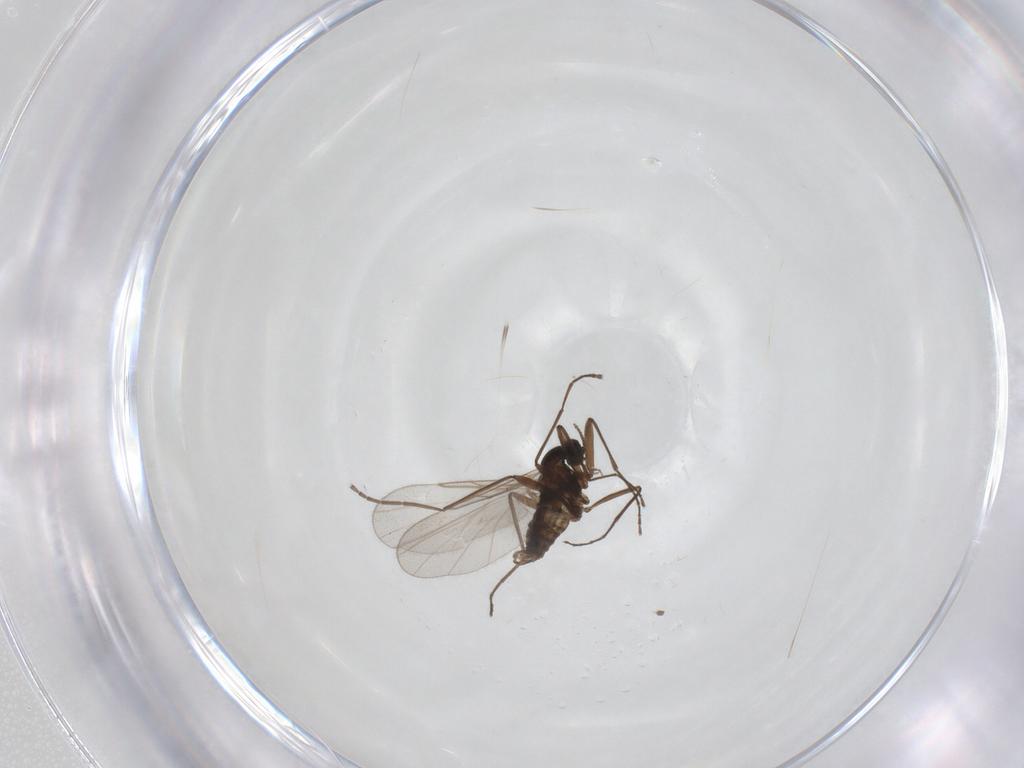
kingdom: Animalia
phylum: Arthropoda
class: Insecta
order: Diptera
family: Cecidomyiidae
